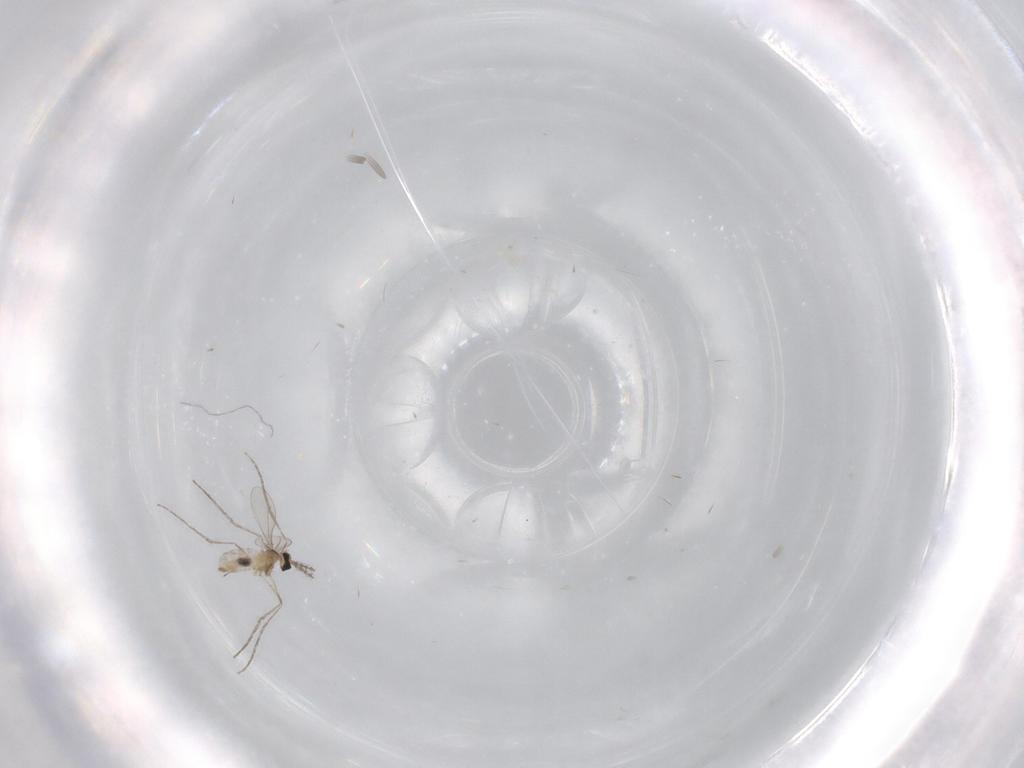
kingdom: Animalia
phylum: Arthropoda
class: Insecta
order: Diptera
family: Cecidomyiidae
